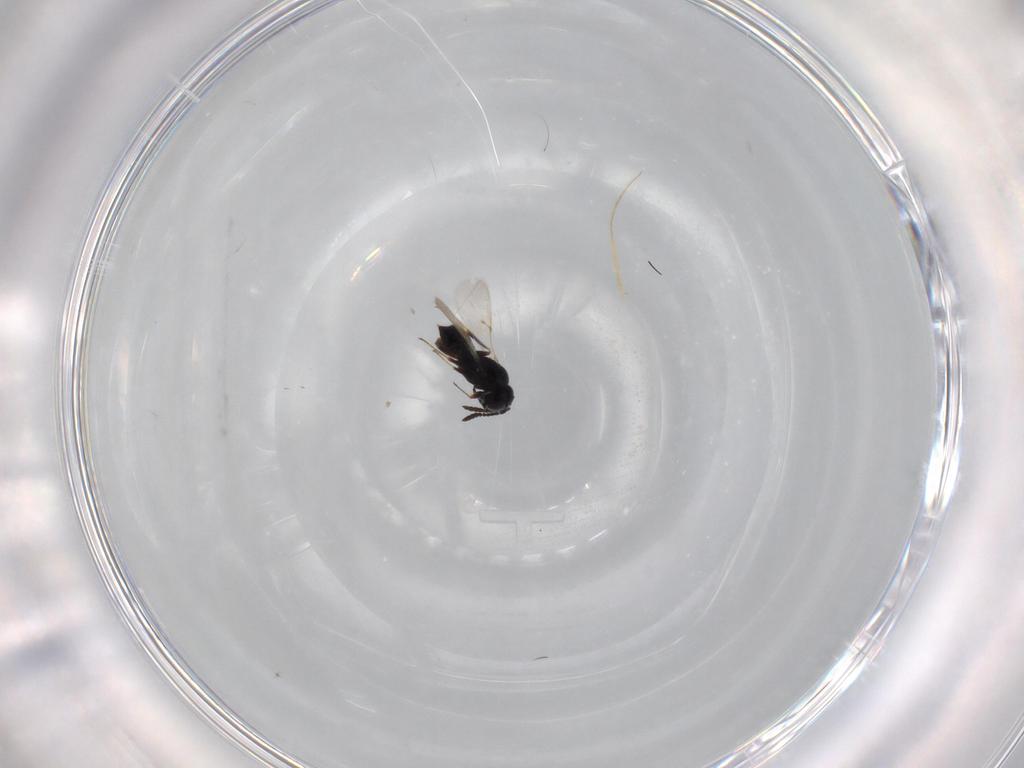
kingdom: Animalia
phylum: Arthropoda
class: Insecta
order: Hymenoptera
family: Scelionidae
